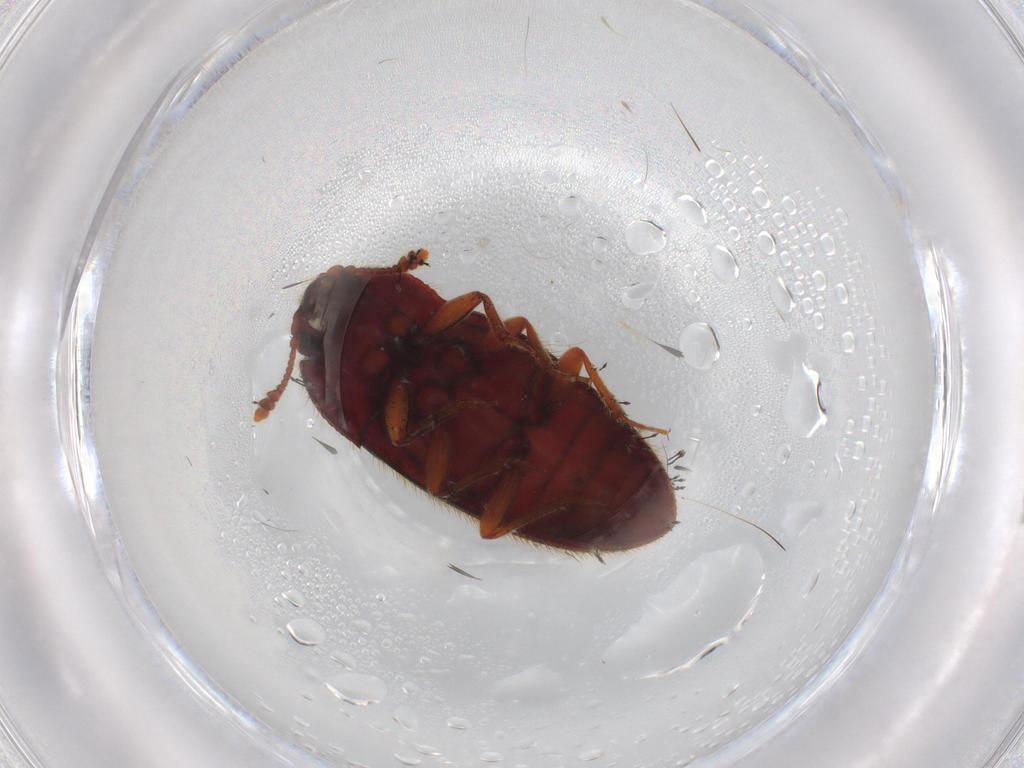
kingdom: Animalia
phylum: Arthropoda
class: Insecta
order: Coleoptera
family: Biphyllidae
